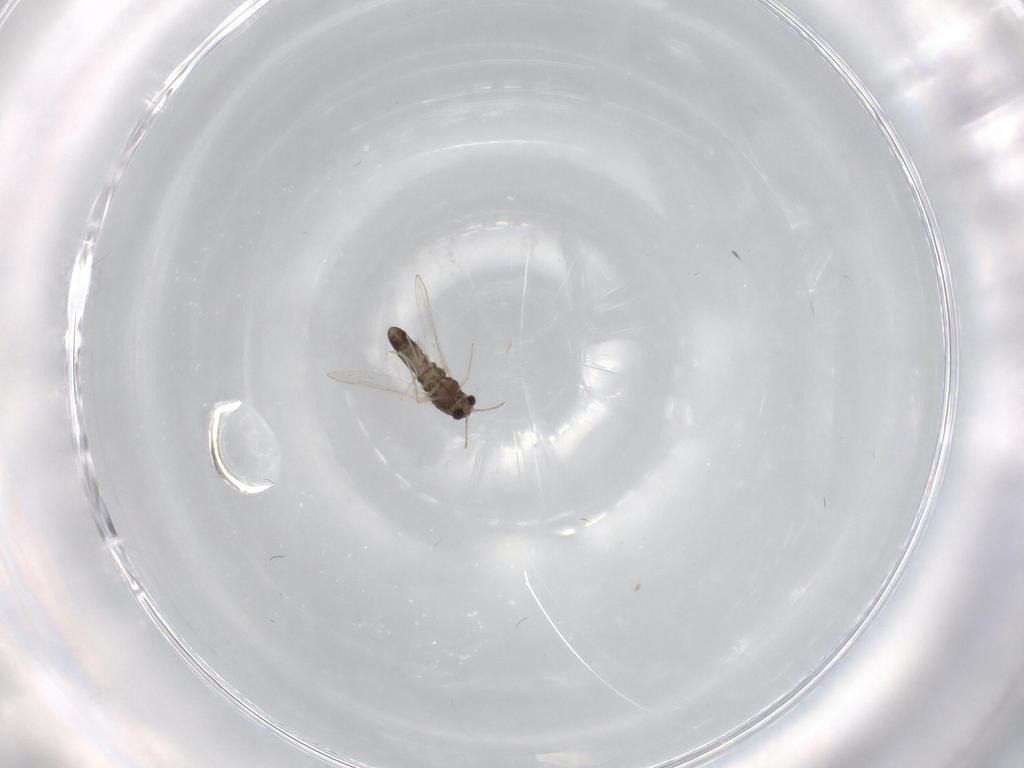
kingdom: Animalia
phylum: Arthropoda
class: Insecta
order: Diptera
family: Chironomidae
